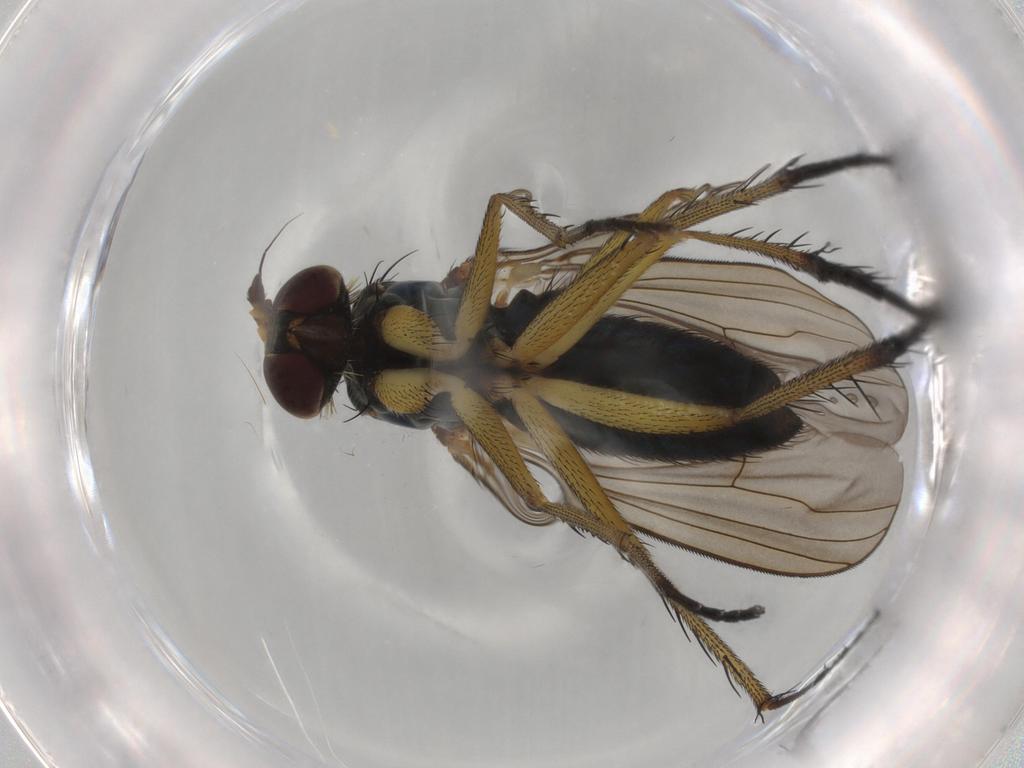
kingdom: Animalia
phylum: Arthropoda
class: Insecta
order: Diptera
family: Dolichopodidae
